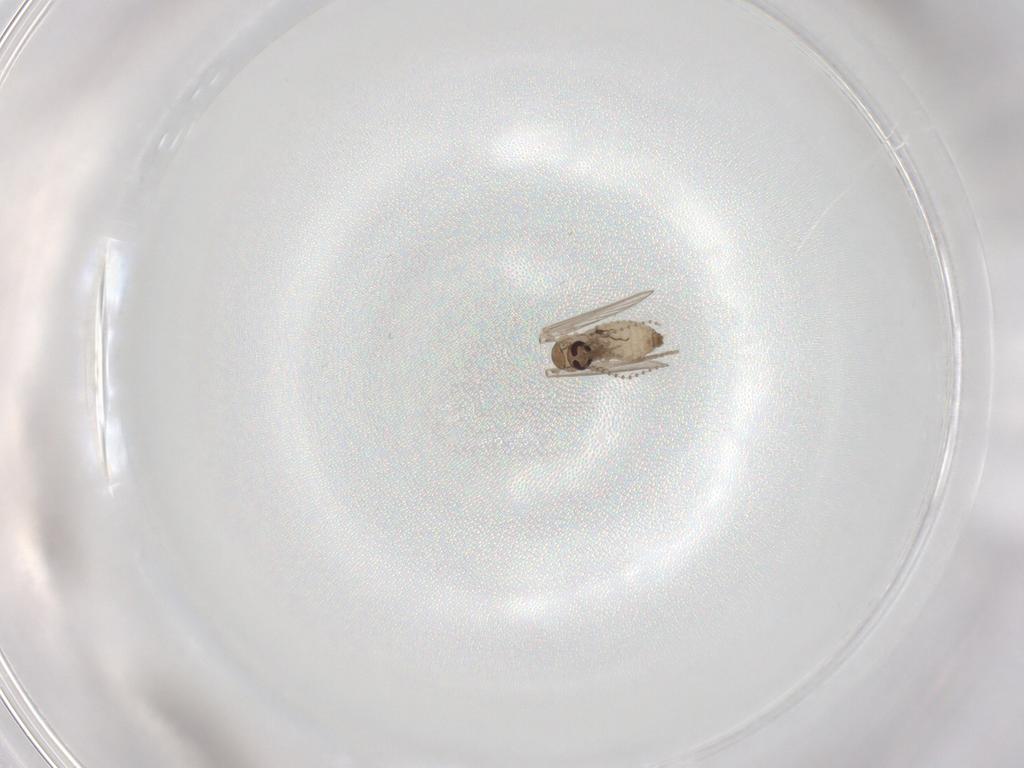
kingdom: Animalia
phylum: Arthropoda
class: Insecta
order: Diptera
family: Psychodidae
